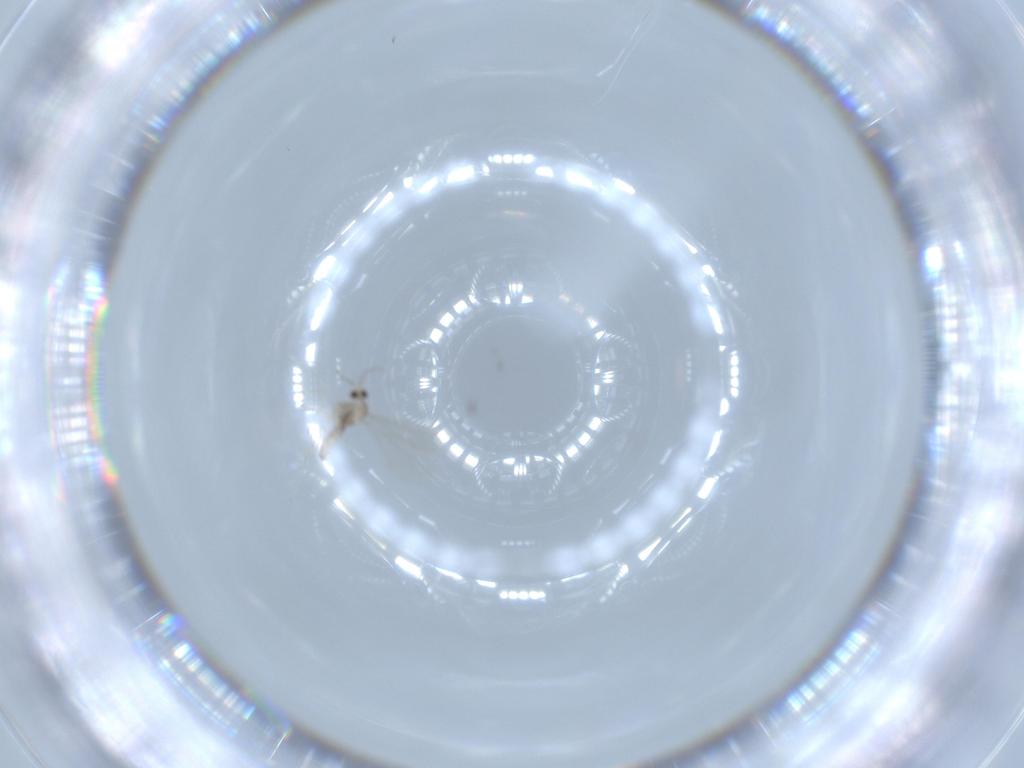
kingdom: Animalia
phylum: Arthropoda
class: Insecta
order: Diptera
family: Cecidomyiidae
